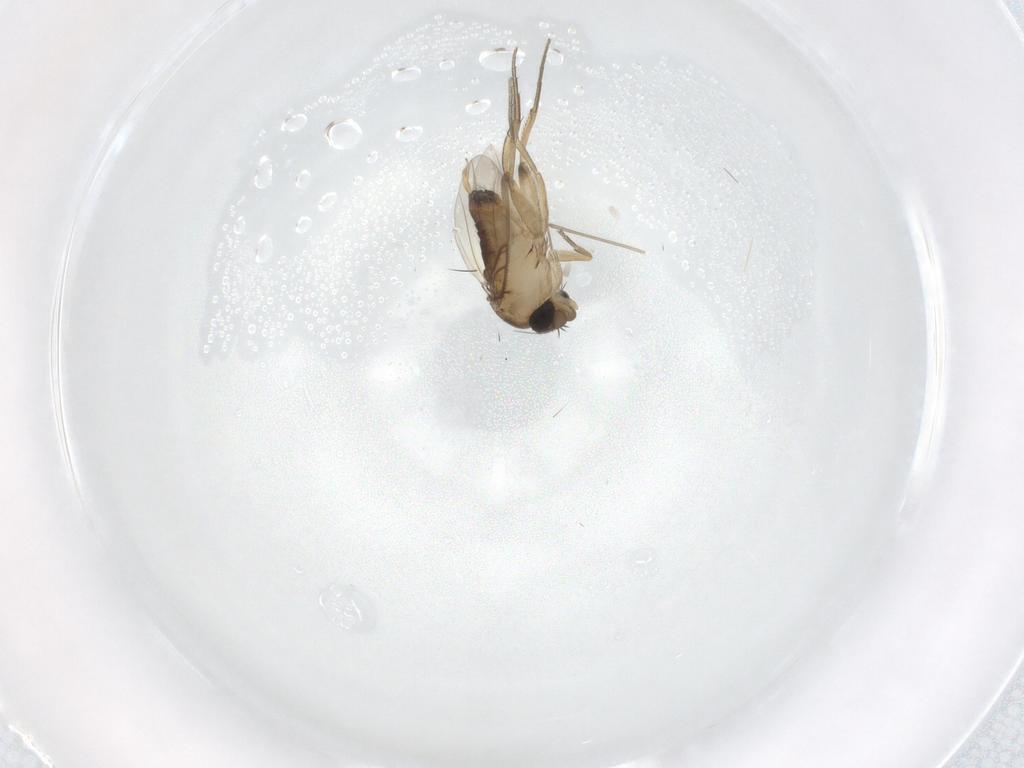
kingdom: Animalia
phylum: Arthropoda
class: Insecta
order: Diptera
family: Phoridae
